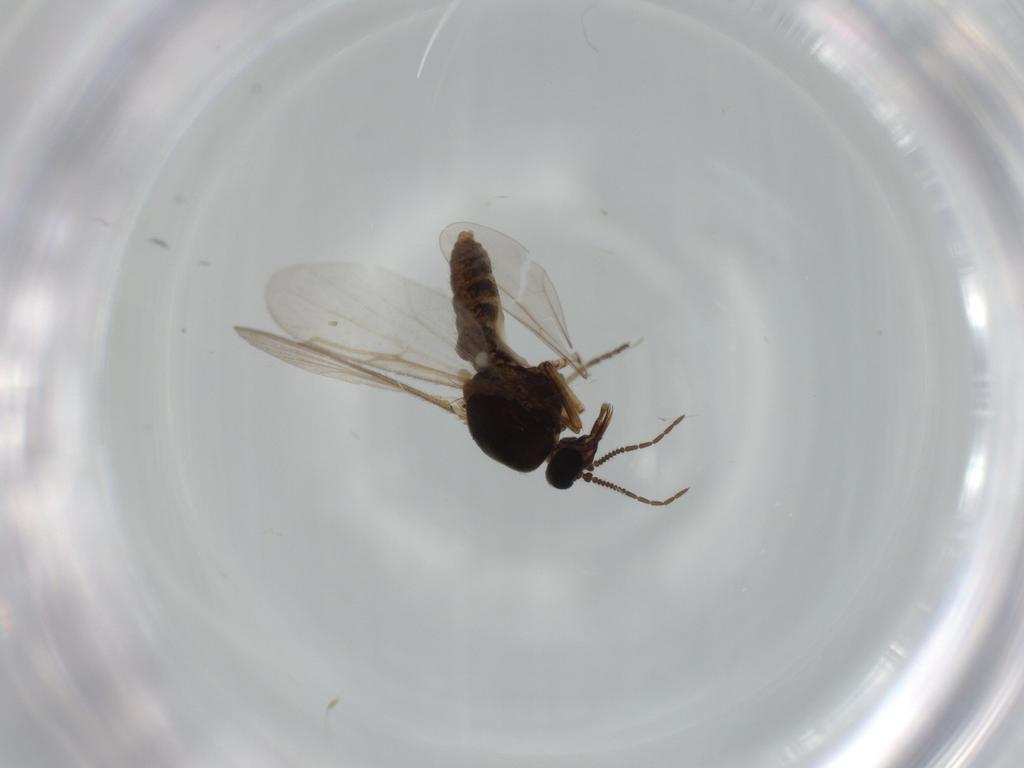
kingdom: Animalia
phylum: Arthropoda
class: Insecta
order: Diptera
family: Ceratopogonidae
